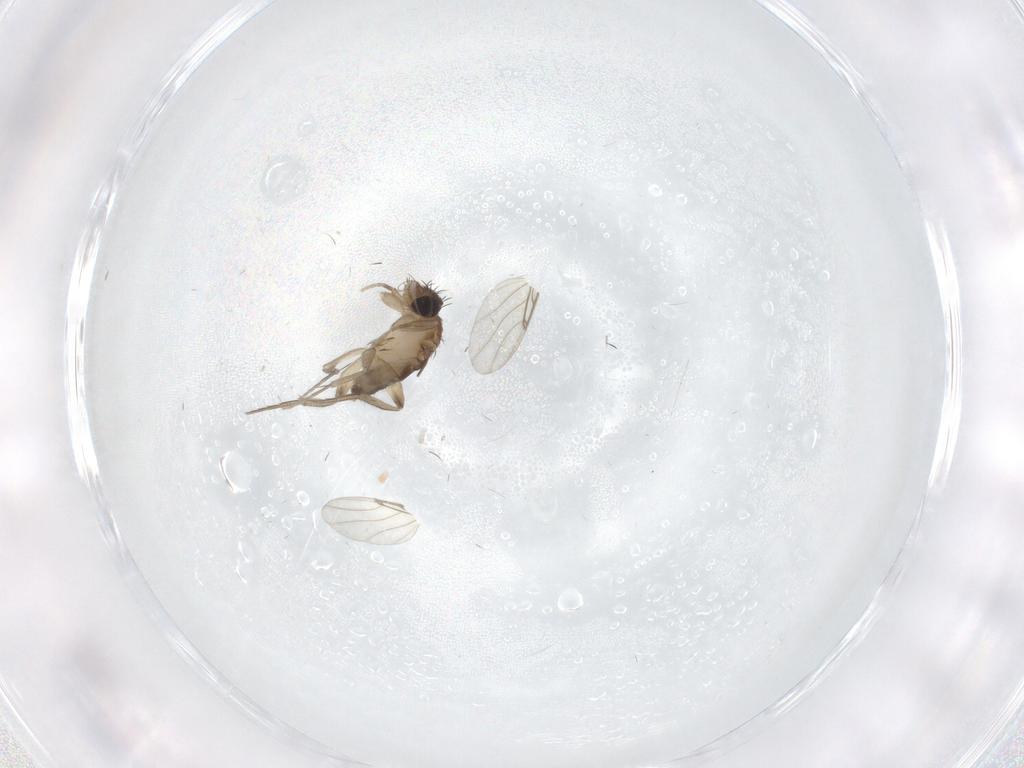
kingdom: Animalia
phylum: Arthropoda
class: Insecta
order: Diptera
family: Phoridae
